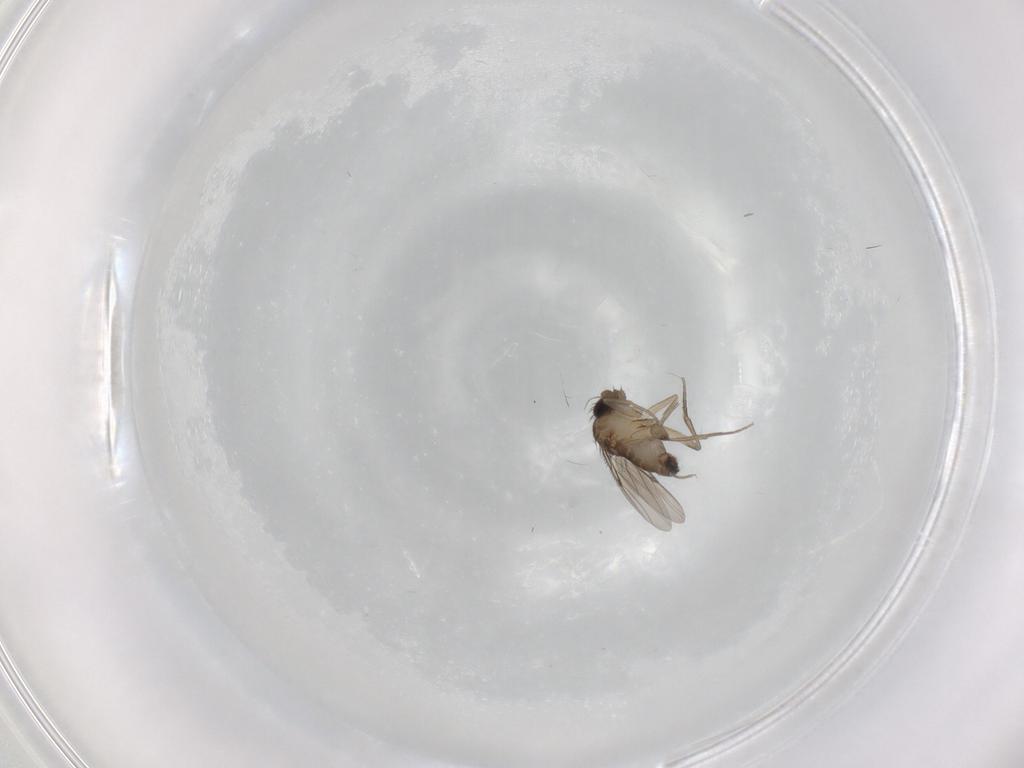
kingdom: Animalia
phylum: Arthropoda
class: Insecta
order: Diptera
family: Phoridae
